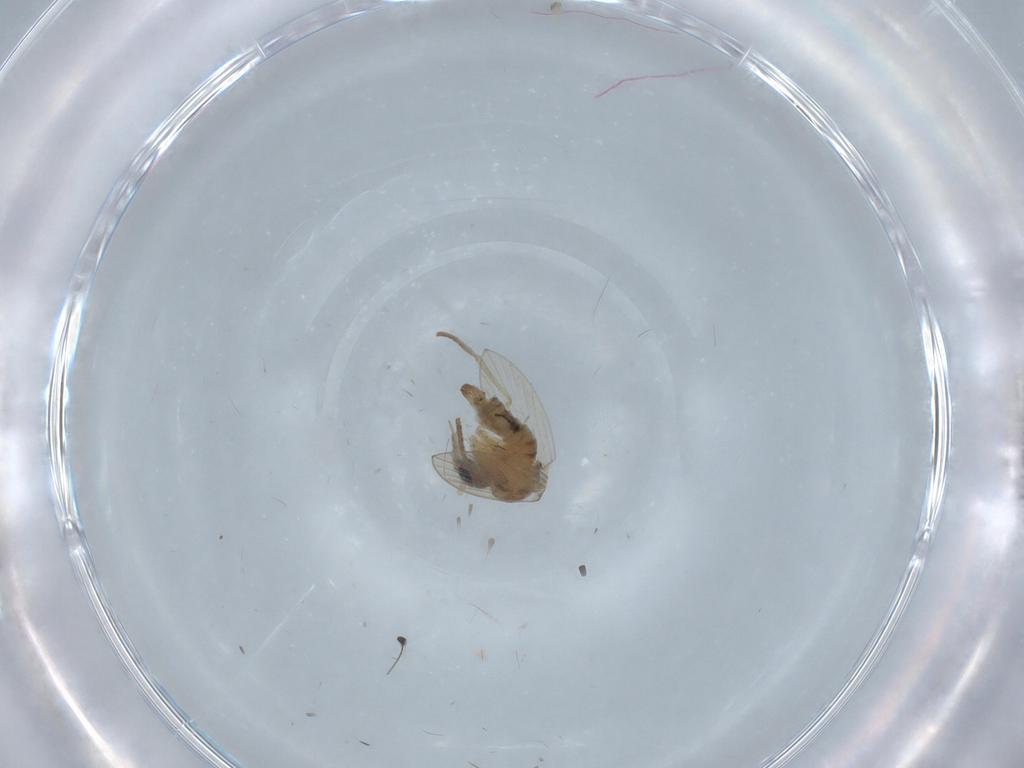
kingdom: Animalia
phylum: Arthropoda
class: Insecta
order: Diptera
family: Psychodidae
